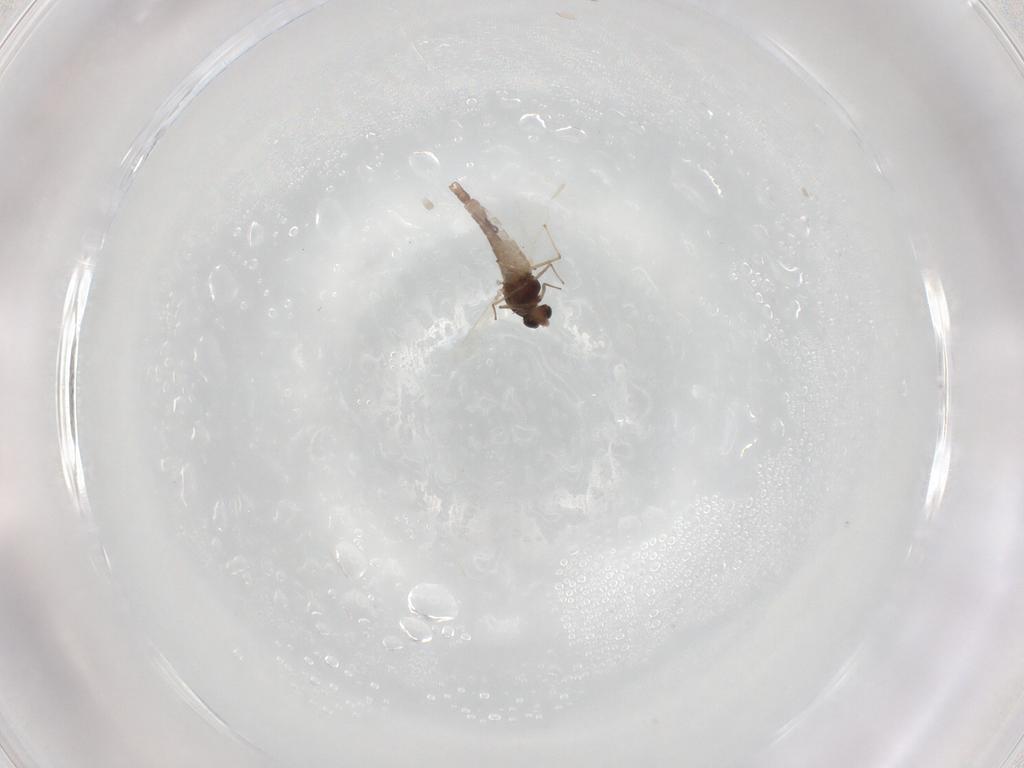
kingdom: Animalia
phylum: Arthropoda
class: Insecta
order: Diptera
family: Chironomidae
